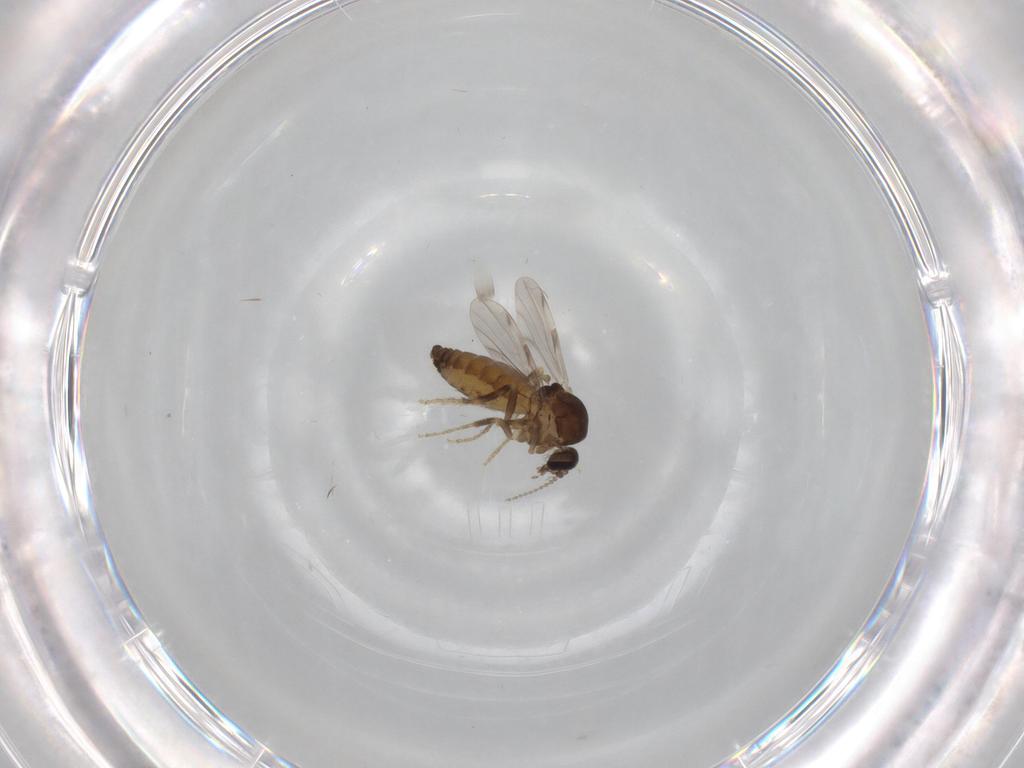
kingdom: Animalia
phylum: Arthropoda
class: Insecta
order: Diptera
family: Ceratopogonidae
